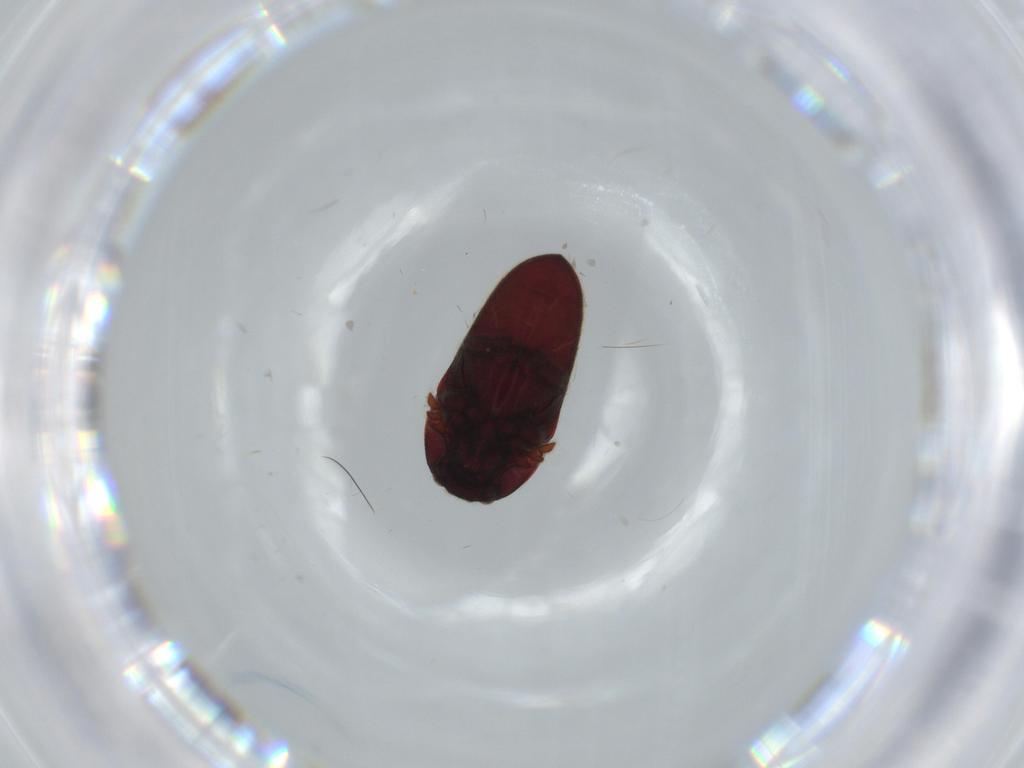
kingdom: Animalia
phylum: Arthropoda
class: Insecta
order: Coleoptera
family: Throscidae
